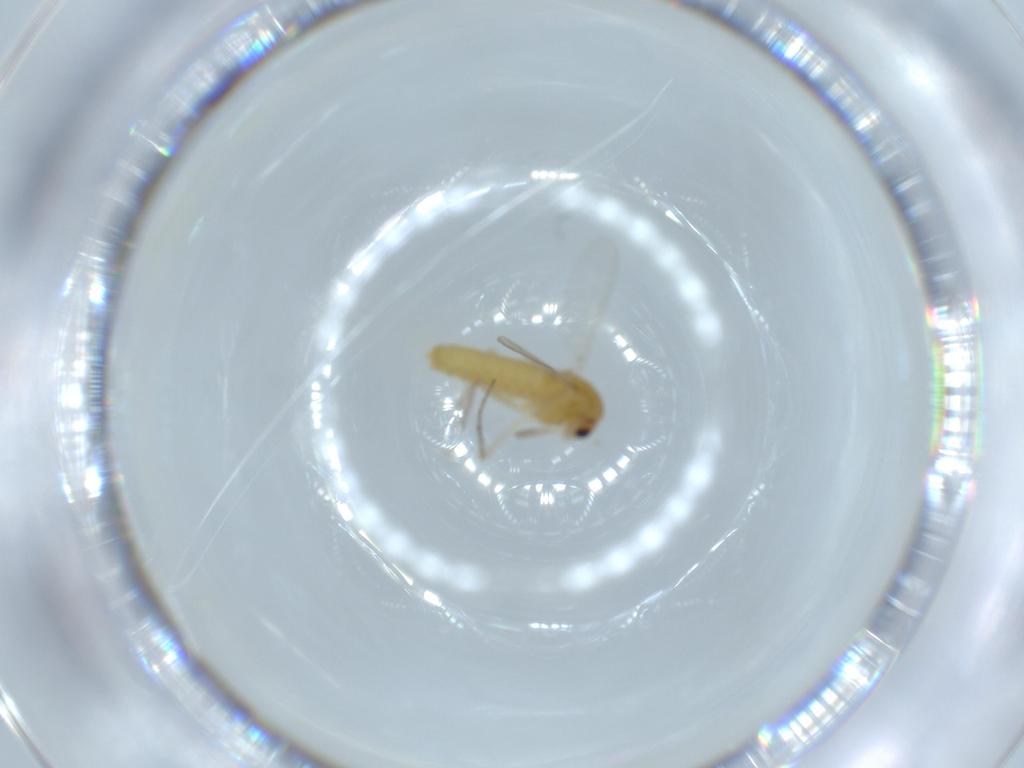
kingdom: Animalia
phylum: Arthropoda
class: Insecta
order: Diptera
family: Chironomidae
